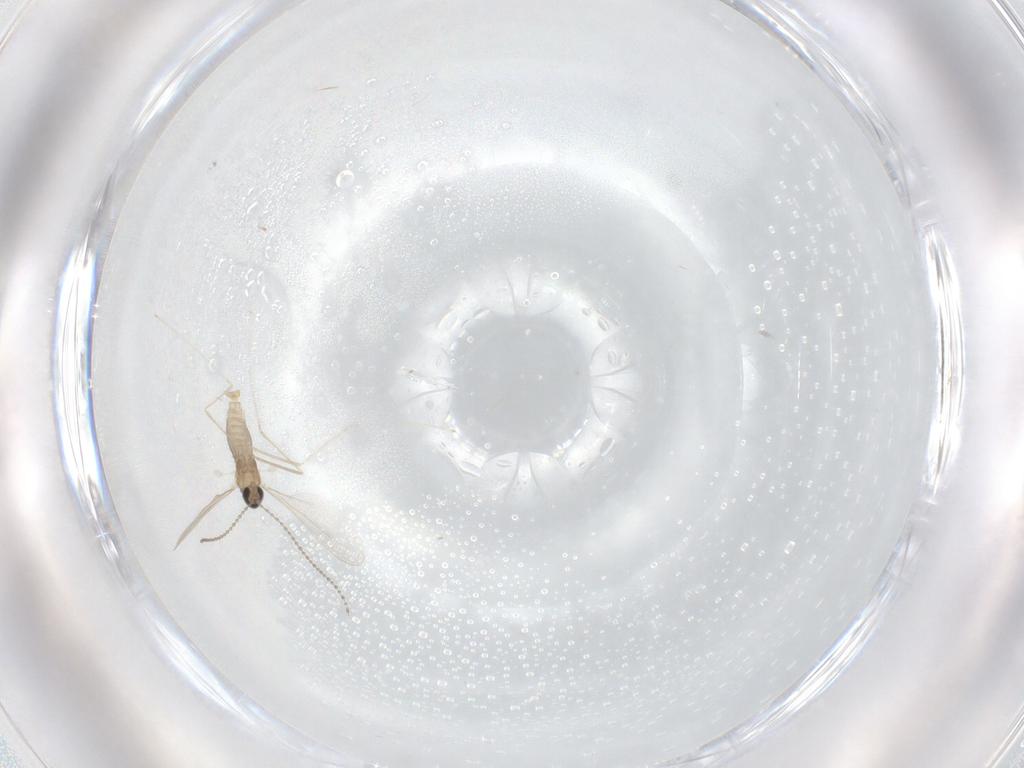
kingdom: Animalia
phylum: Arthropoda
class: Insecta
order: Diptera
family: Cecidomyiidae
